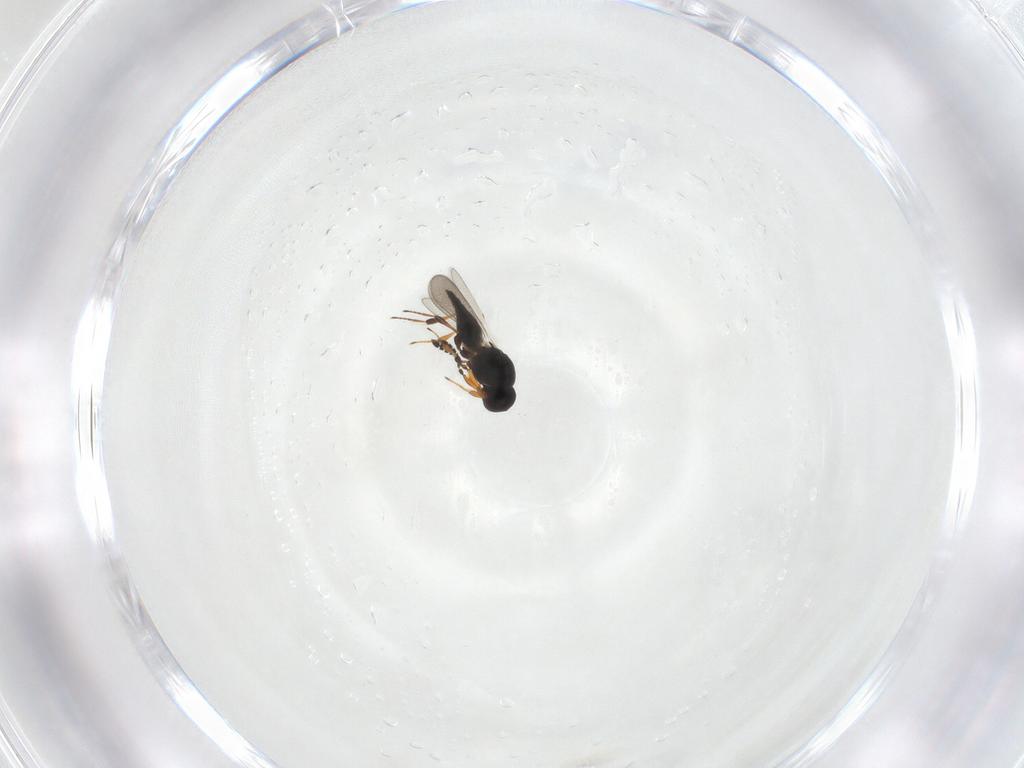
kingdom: Animalia
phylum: Arthropoda
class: Insecta
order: Hymenoptera
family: Platygastridae
